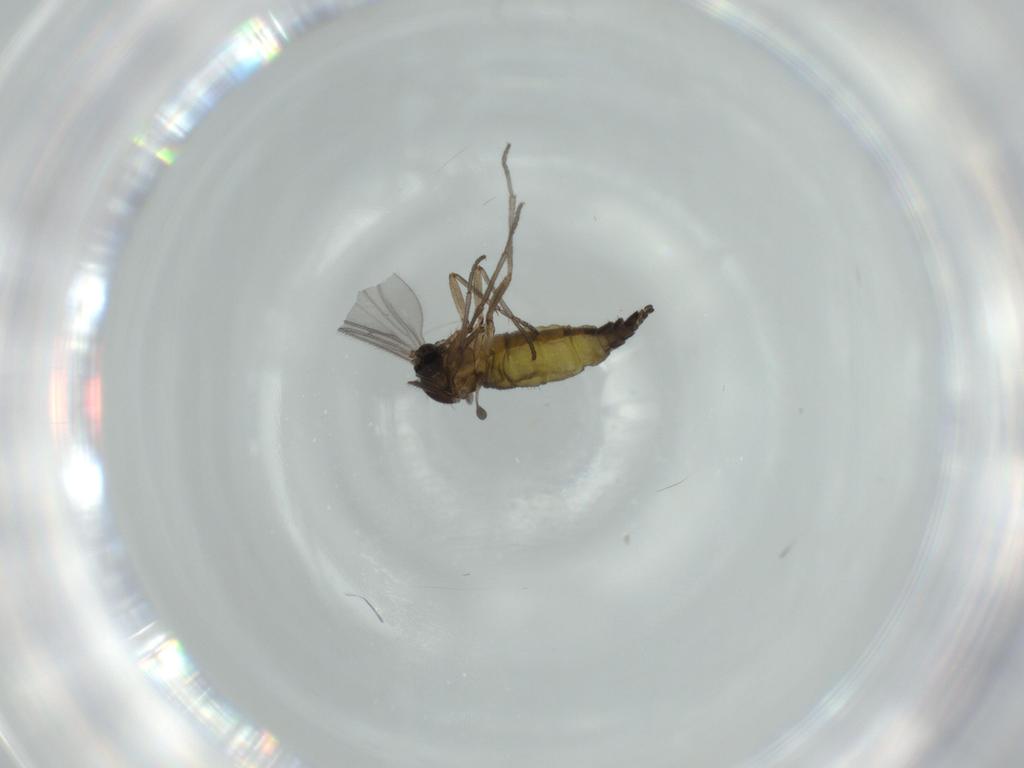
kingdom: Animalia
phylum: Arthropoda
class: Insecta
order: Diptera
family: Sciaridae
